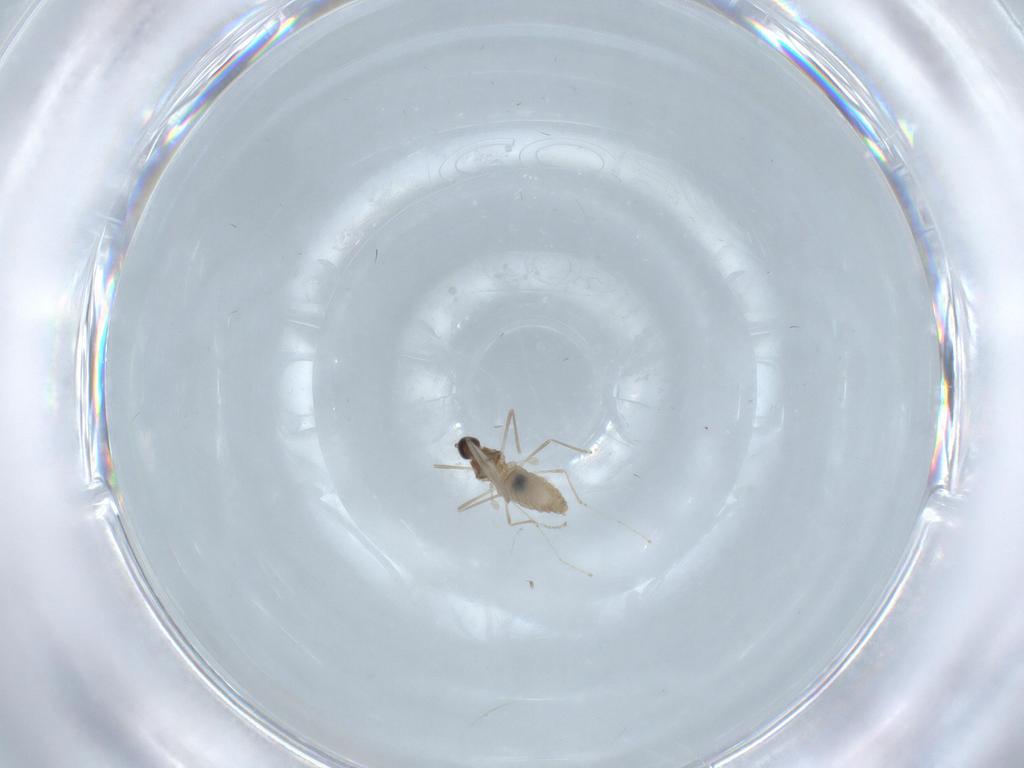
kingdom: Animalia
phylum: Arthropoda
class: Insecta
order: Diptera
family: Cecidomyiidae
